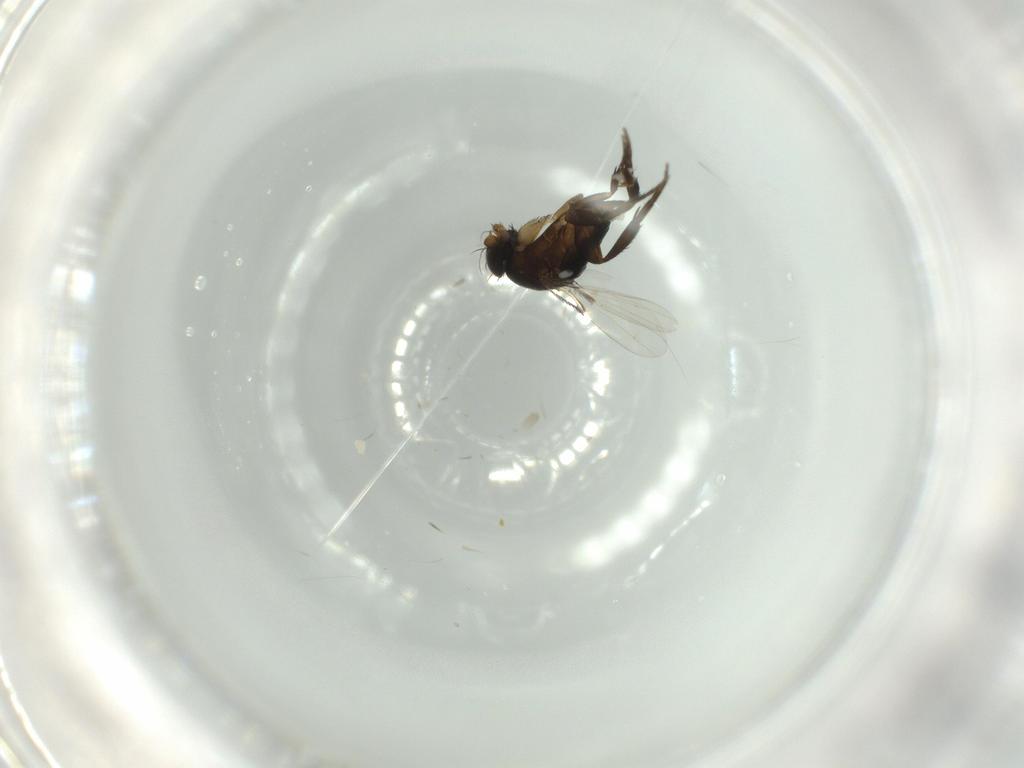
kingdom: Animalia
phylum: Arthropoda
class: Insecta
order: Diptera
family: Phoridae
